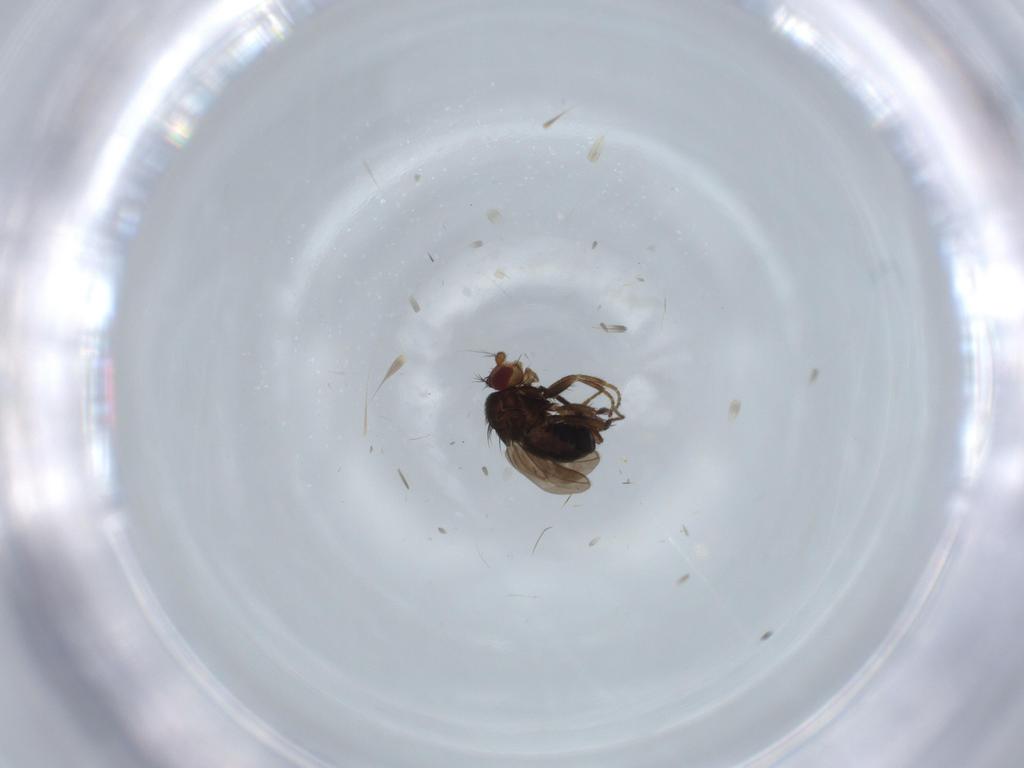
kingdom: Animalia
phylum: Arthropoda
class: Insecta
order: Diptera
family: Sphaeroceridae
